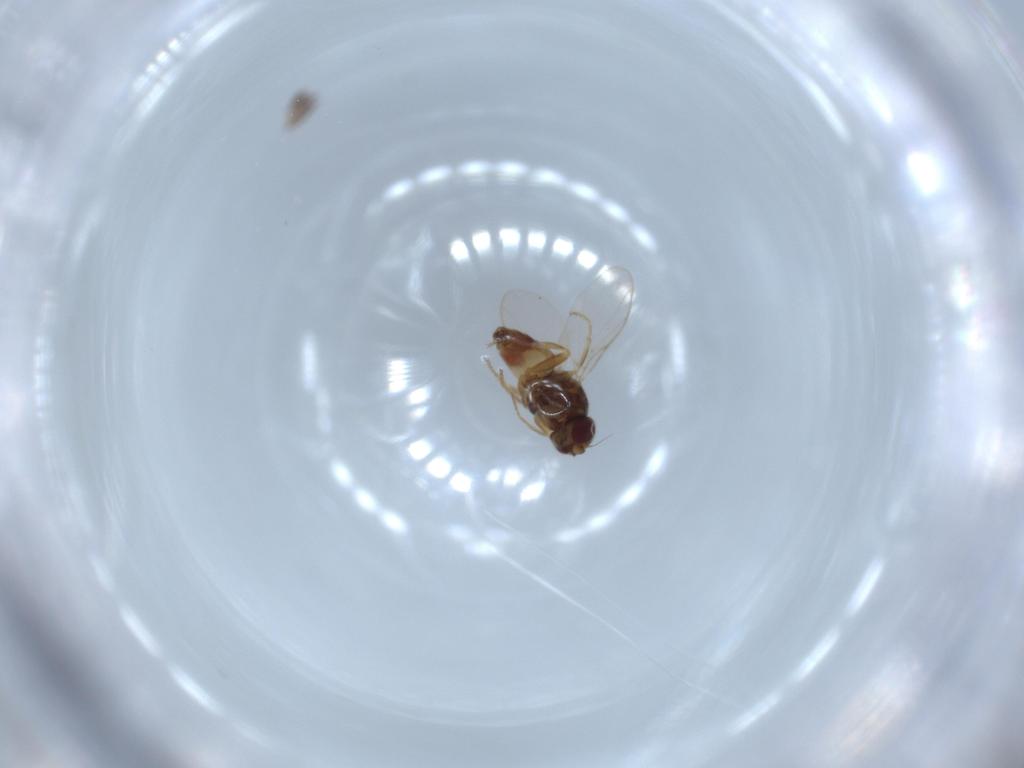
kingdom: Animalia
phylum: Arthropoda
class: Insecta
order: Diptera
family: Chloropidae
